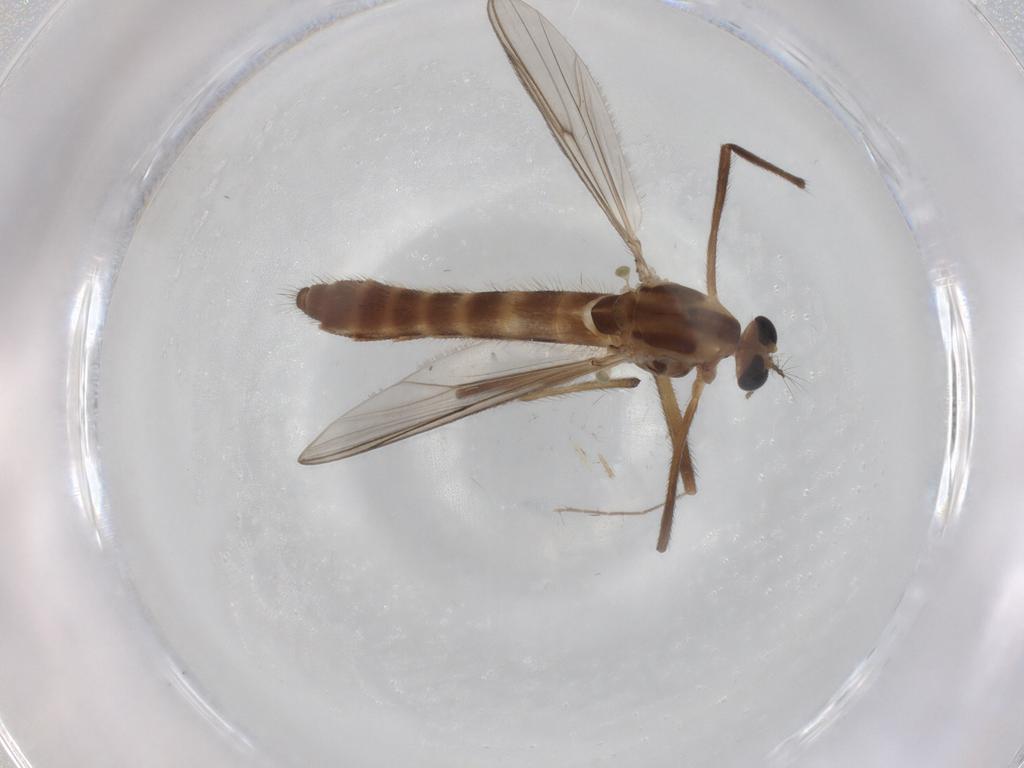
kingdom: Animalia
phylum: Arthropoda
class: Insecta
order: Diptera
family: Chironomidae
